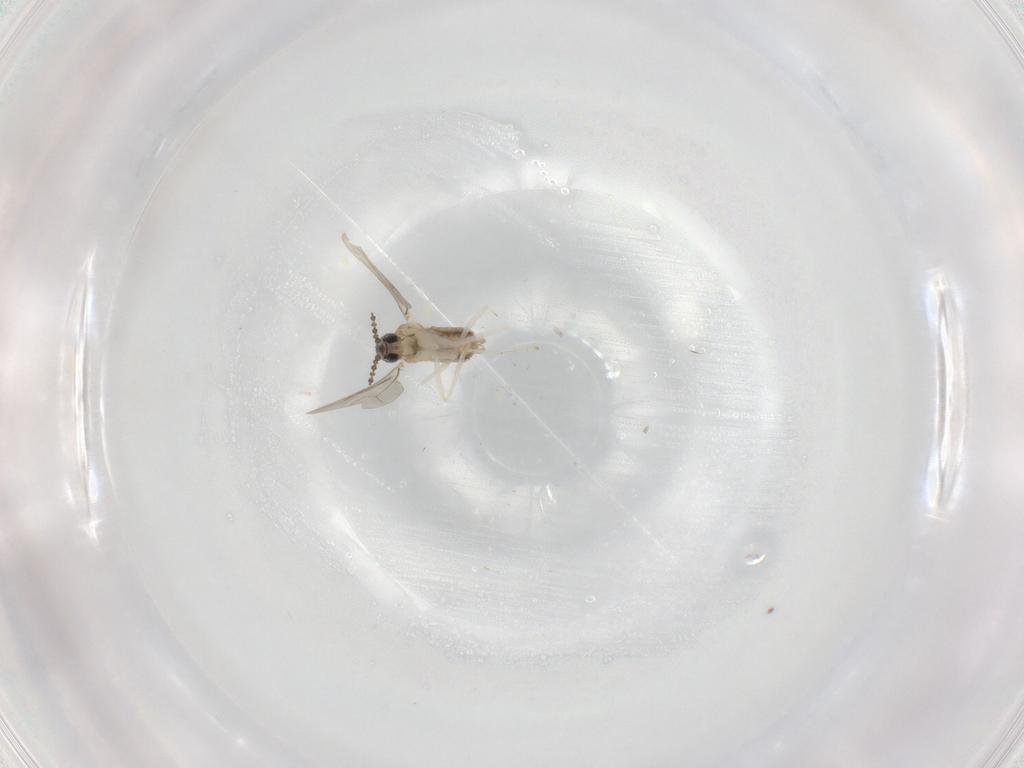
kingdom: Animalia
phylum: Arthropoda
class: Insecta
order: Diptera
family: Cecidomyiidae
